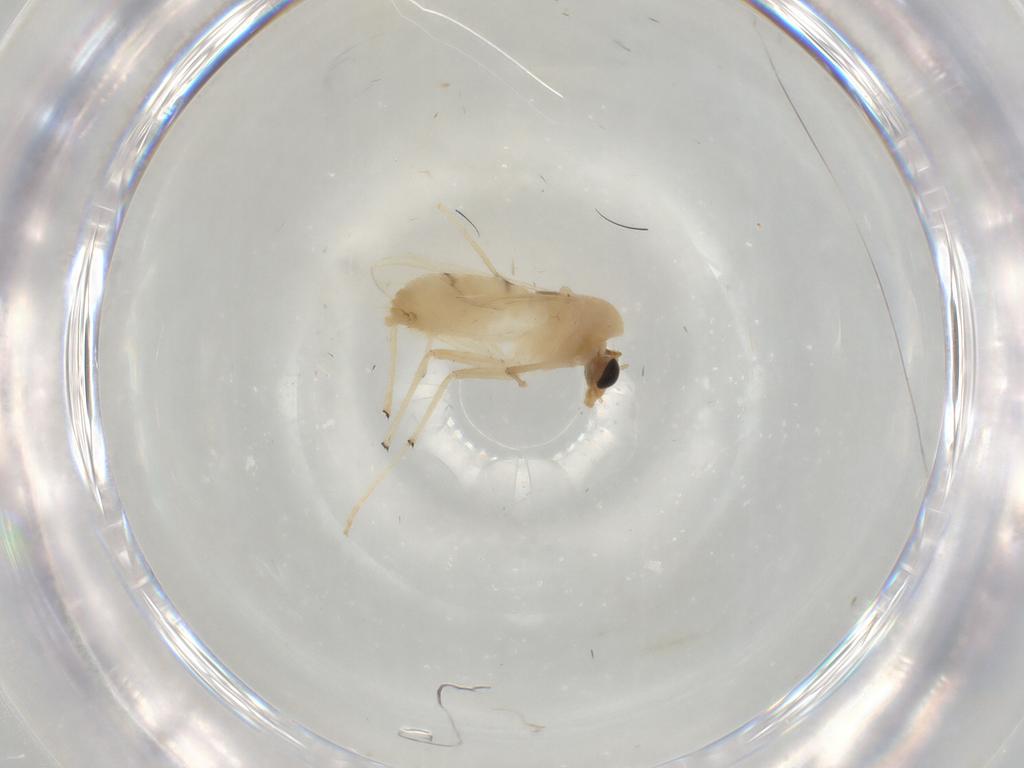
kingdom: Animalia
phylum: Arthropoda
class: Insecta
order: Diptera
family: Chironomidae
